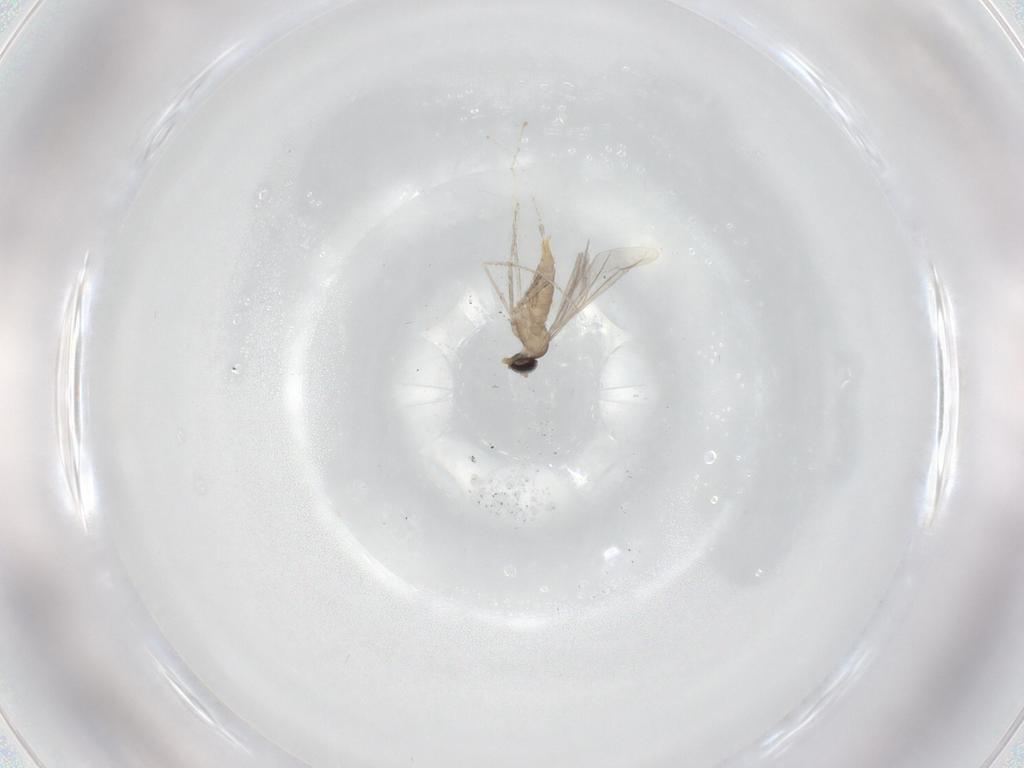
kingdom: Animalia
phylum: Arthropoda
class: Insecta
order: Diptera
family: Cecidomyiidae
